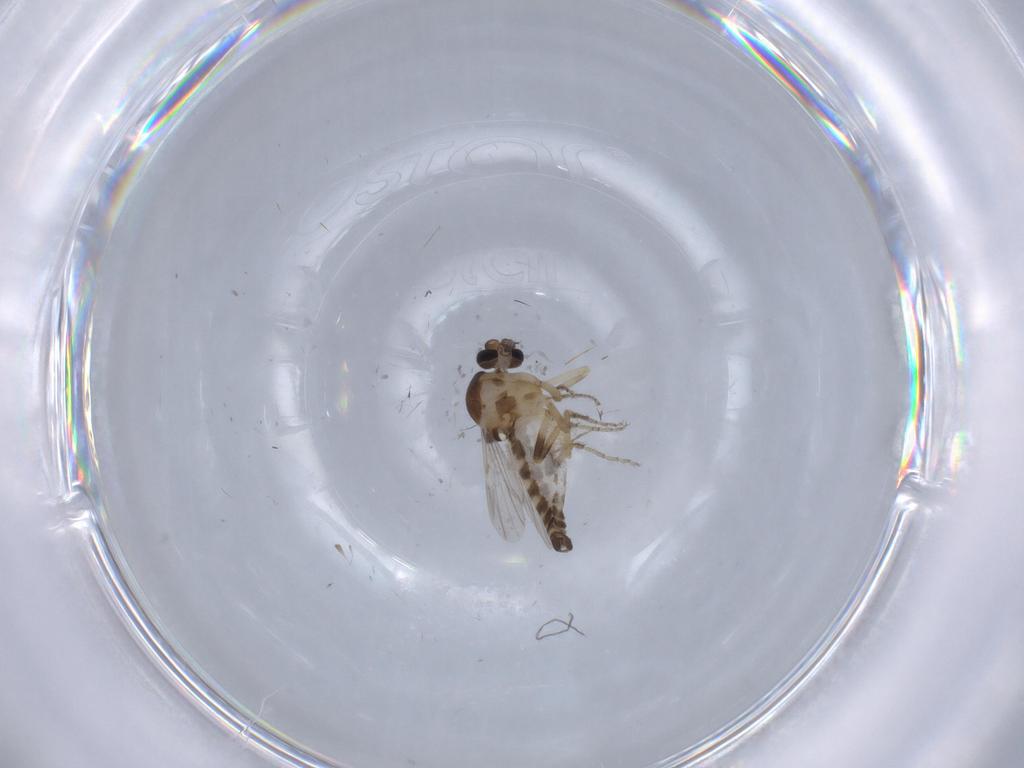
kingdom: Animalia
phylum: Arthropoda
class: Insecta
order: Diptera
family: Ceratopogonidae
